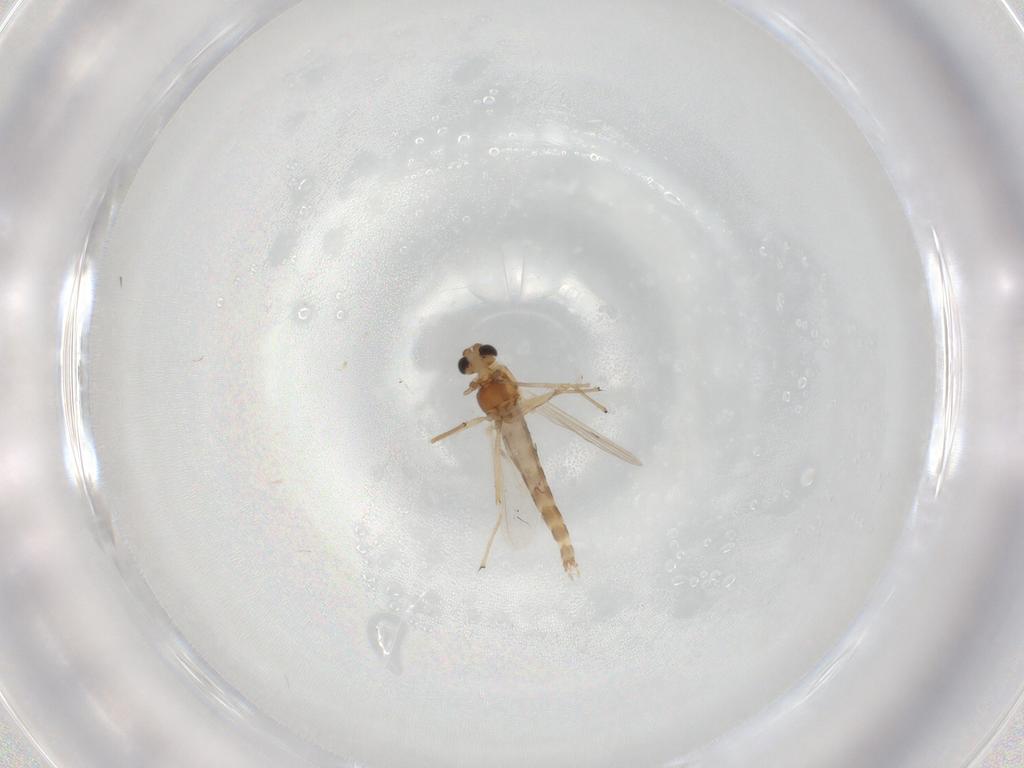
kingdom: Animalia
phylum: Arthropoda
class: Insecta
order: Diptera
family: Chironomidae
